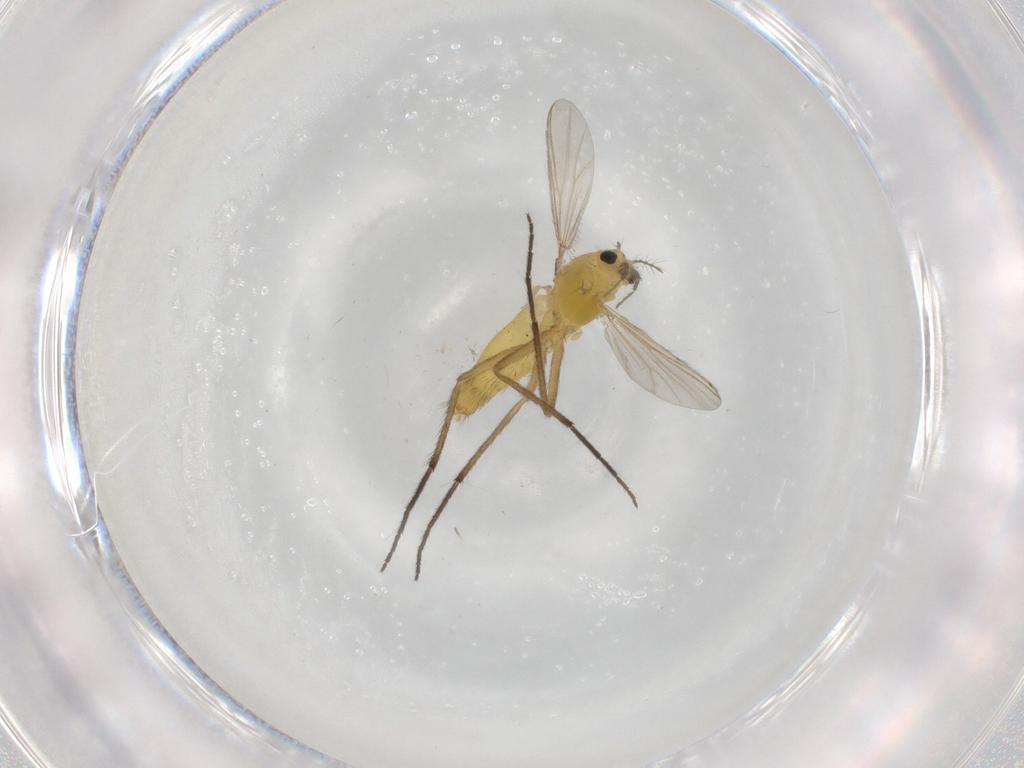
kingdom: Animalia
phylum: Arthropoda
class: Insecta
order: Diptera
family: Chironomidae
